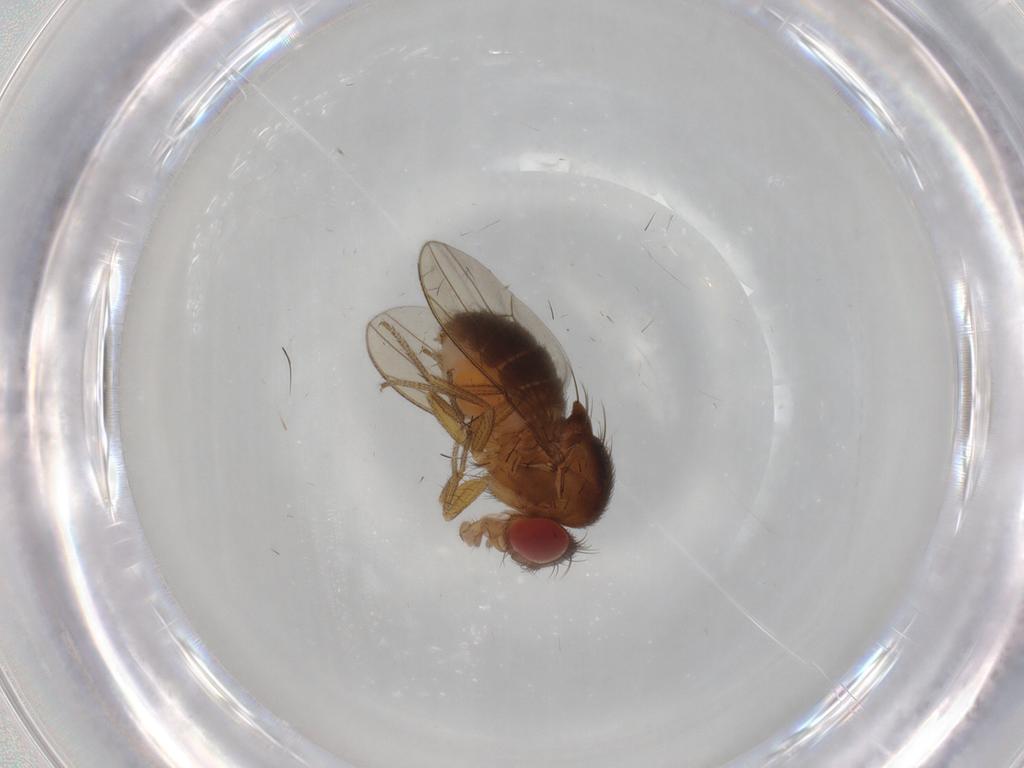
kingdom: Animalia
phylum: Arthropoda
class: Insecta
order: Diptera
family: Drosophilidae
